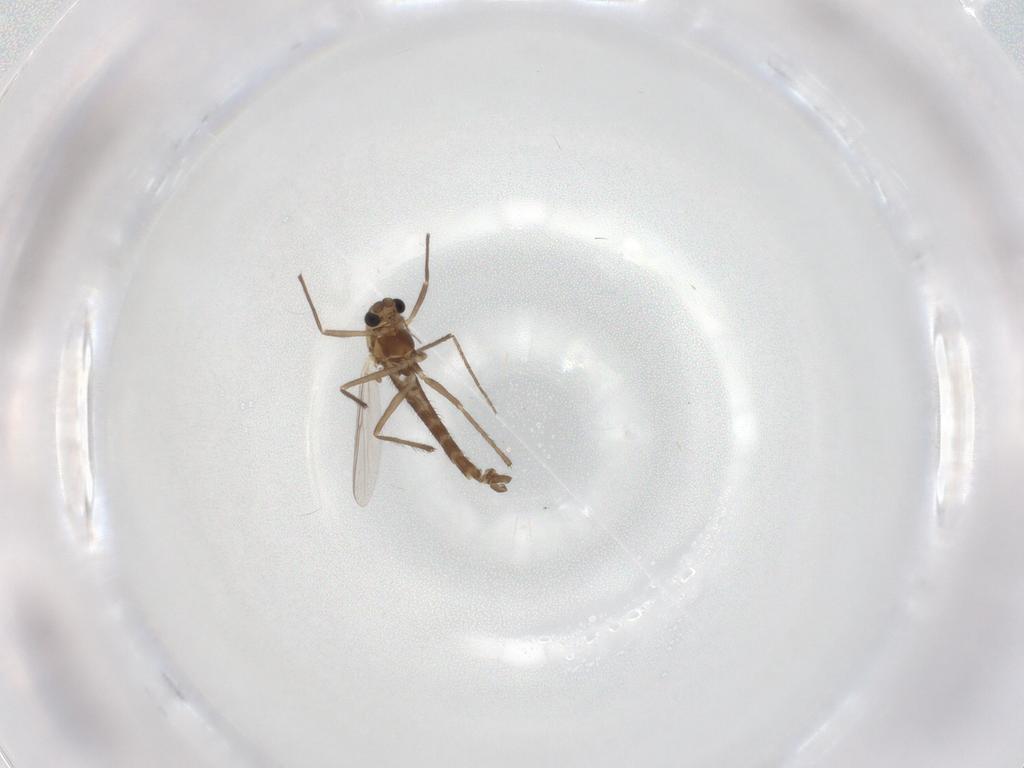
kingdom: Animalia
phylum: Arthropoda
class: Insecta
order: Diptera
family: Chironomidae
